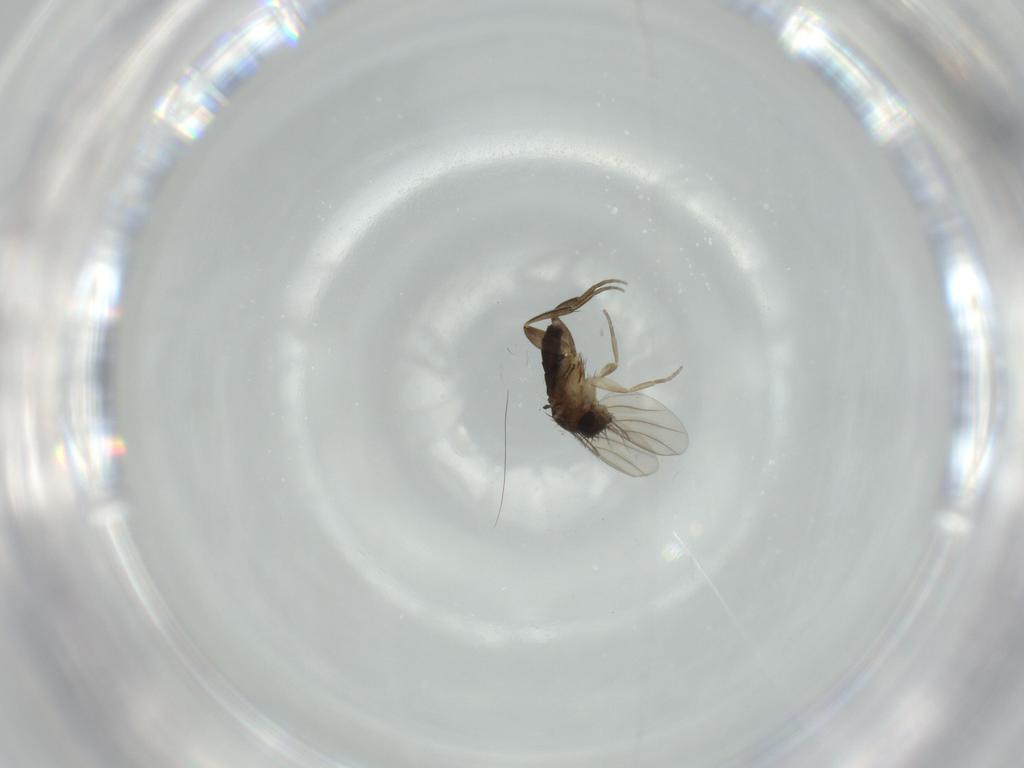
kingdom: Animalia
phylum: Arthropoda
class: Insecta
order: Diptera
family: Phoridae
